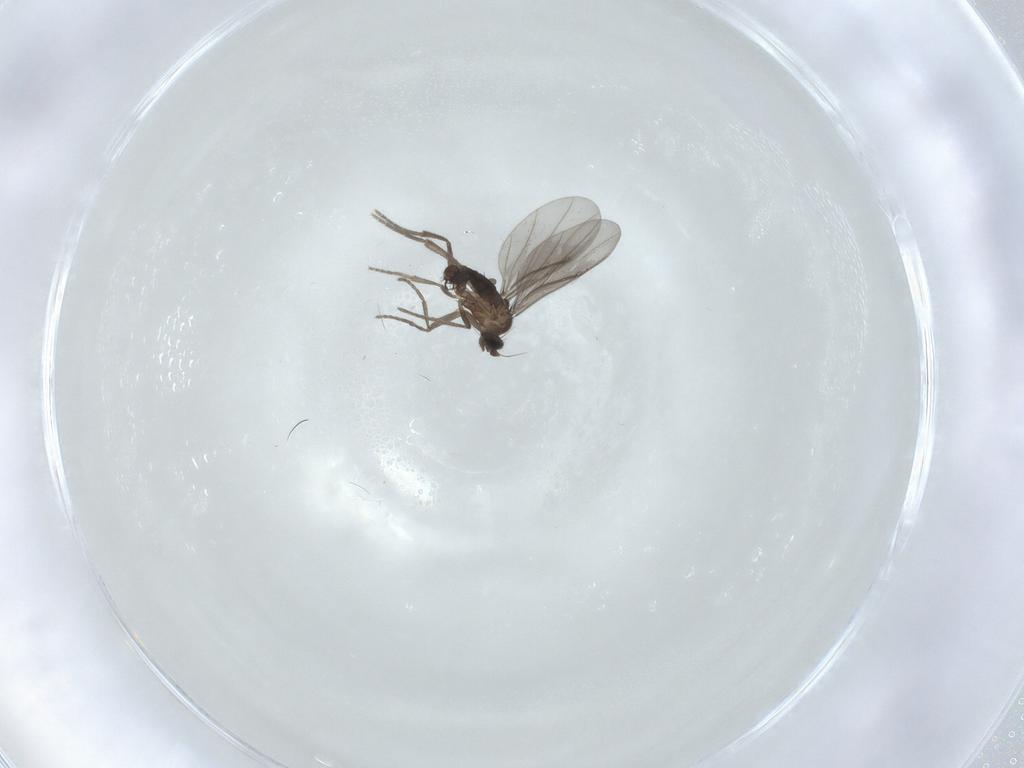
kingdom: Animalia
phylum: Arthropoda
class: Insecta
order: Diptera
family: Phoridae
